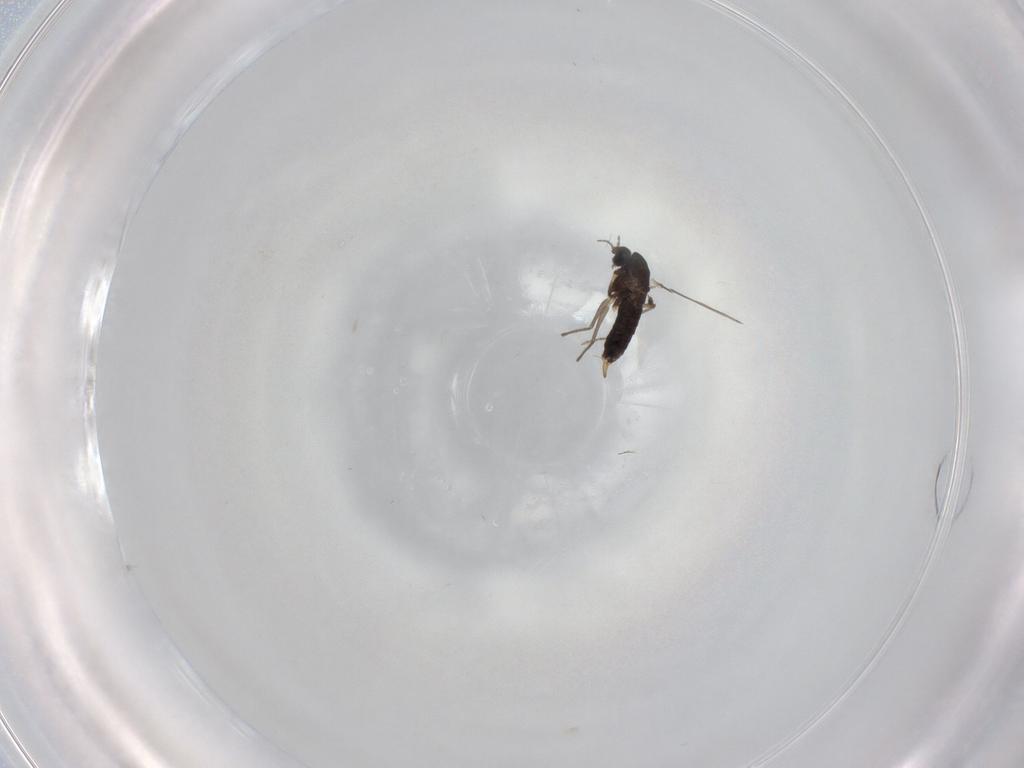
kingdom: Animalia
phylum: Arthropoda
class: Insecta
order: Diptera
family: Chironomidae
